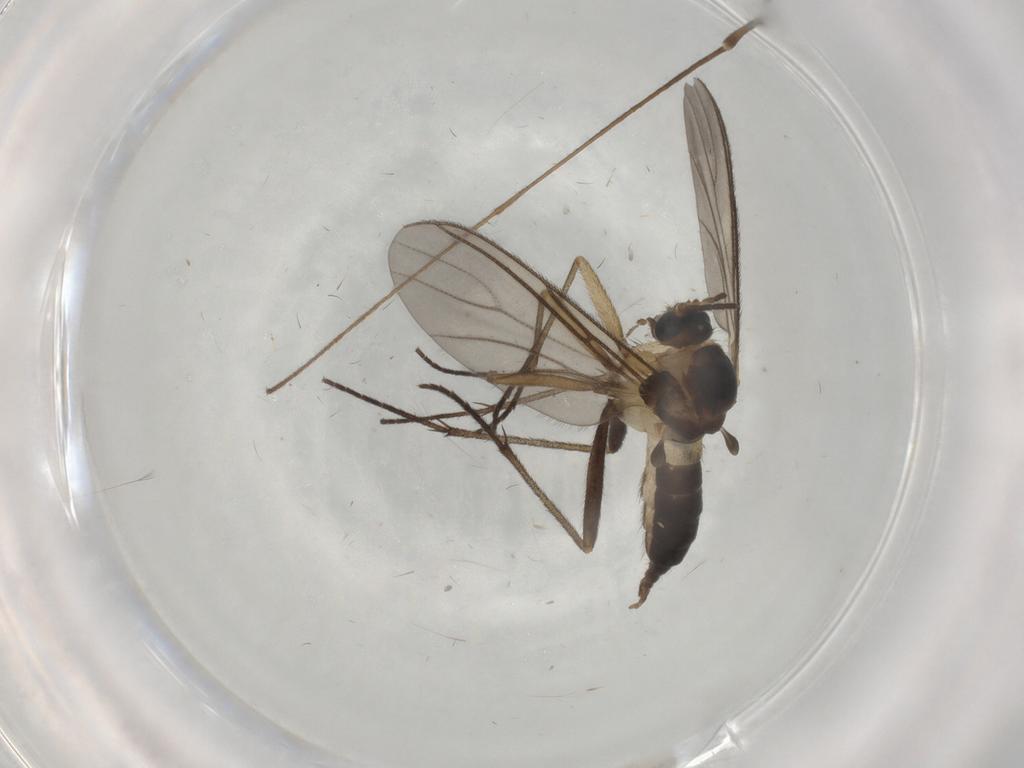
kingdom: Animalia
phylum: Arthropoda
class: Insecta
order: Diptera
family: Sciaridae
